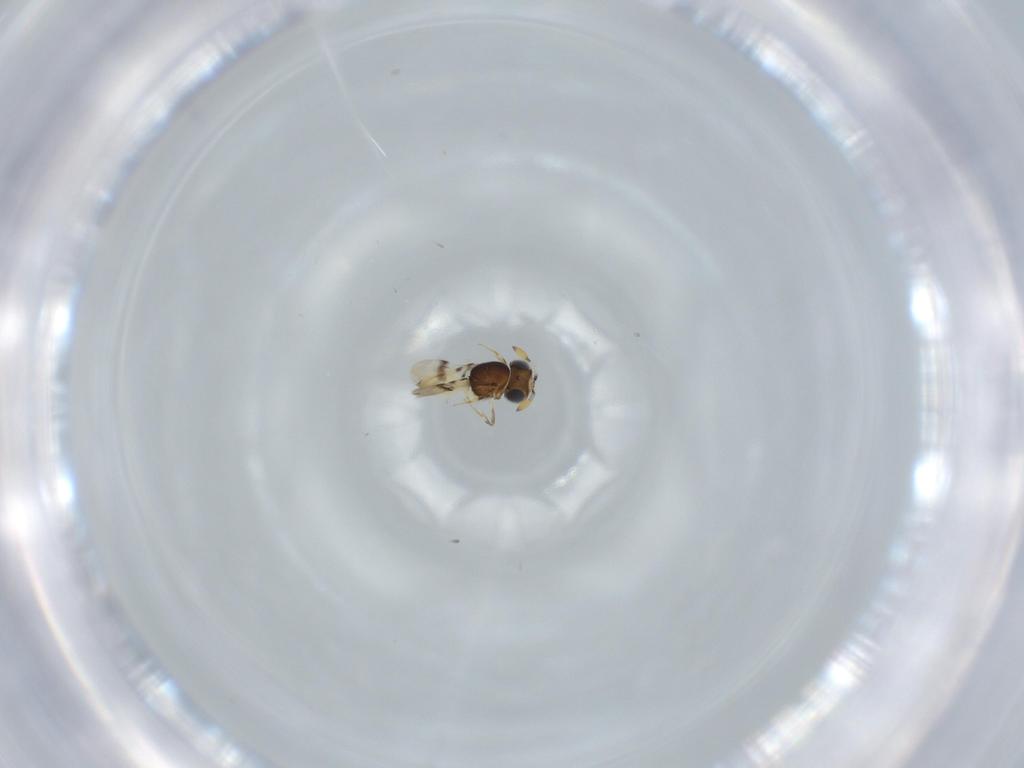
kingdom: Animalia
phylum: Arthropoda
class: Insecta
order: Hymenoptera
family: Scelionidae
